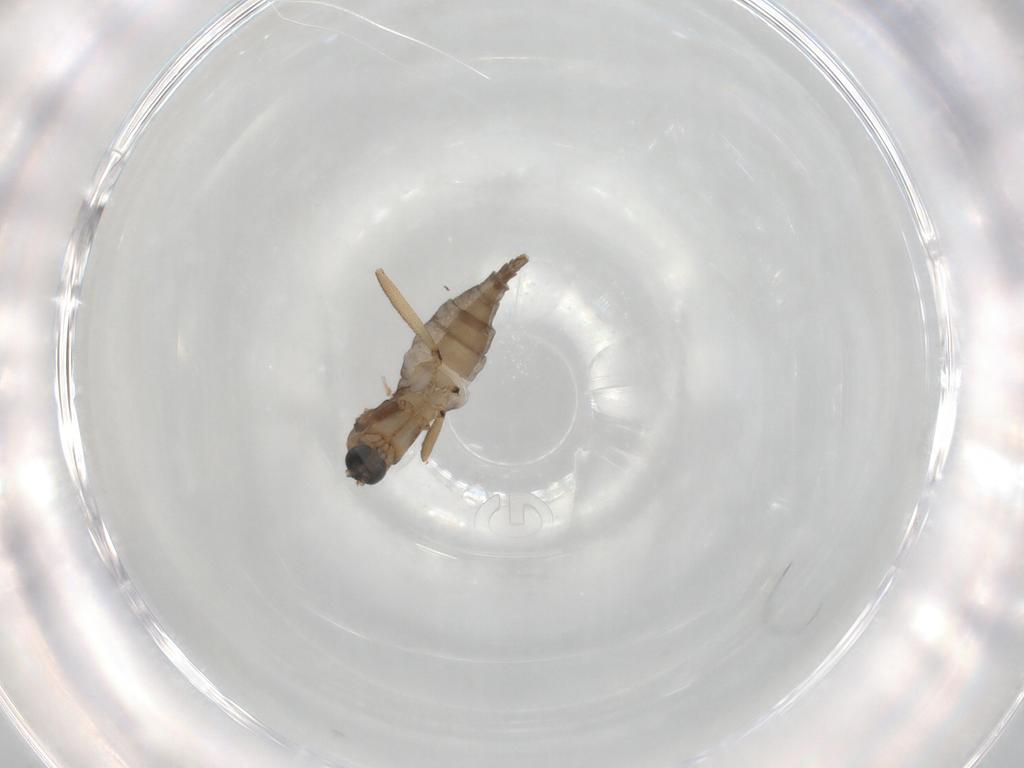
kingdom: Animalia
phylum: Arthropoda
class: Insecta
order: Diptera
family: Sciaridae
